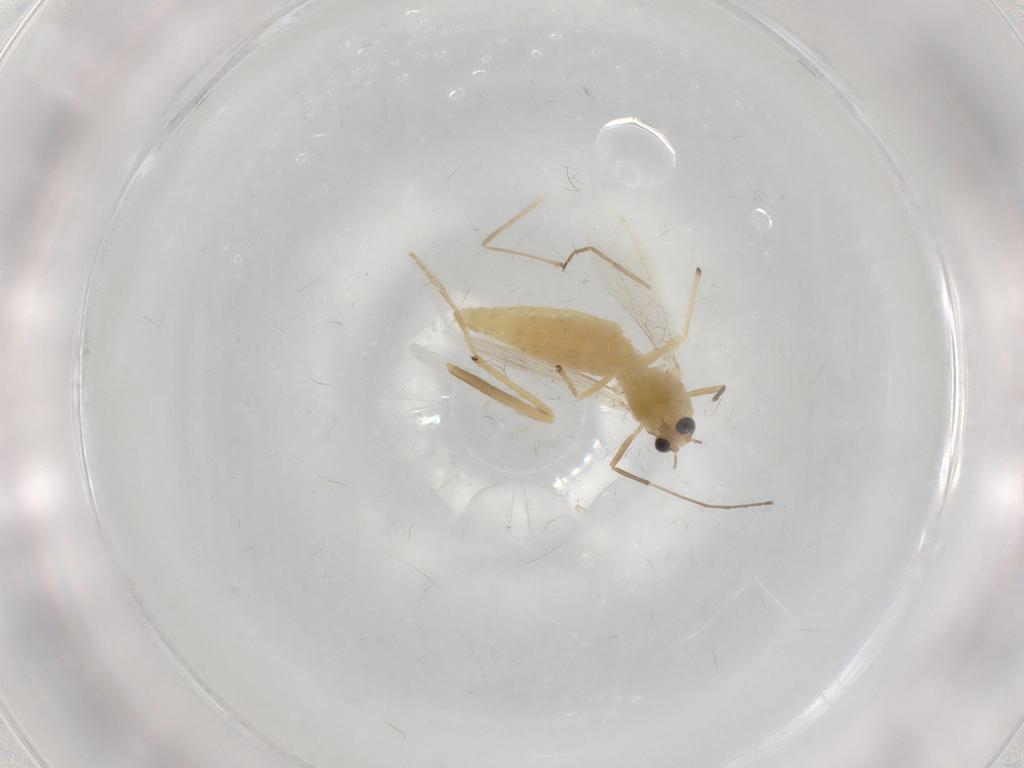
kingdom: Animalia
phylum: Arthropoda
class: Insecta
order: Diptera
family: Chironomidae
